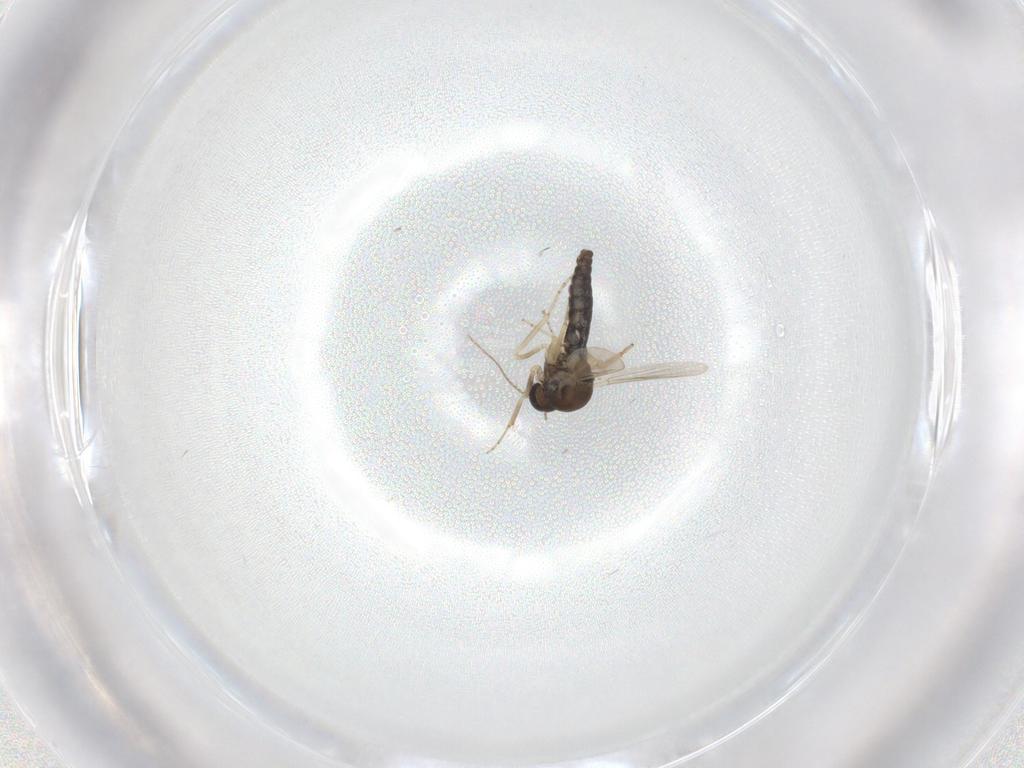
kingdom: Animalia
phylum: Arthropoda
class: Insecta
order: Diptera
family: Ceratopogonidae
